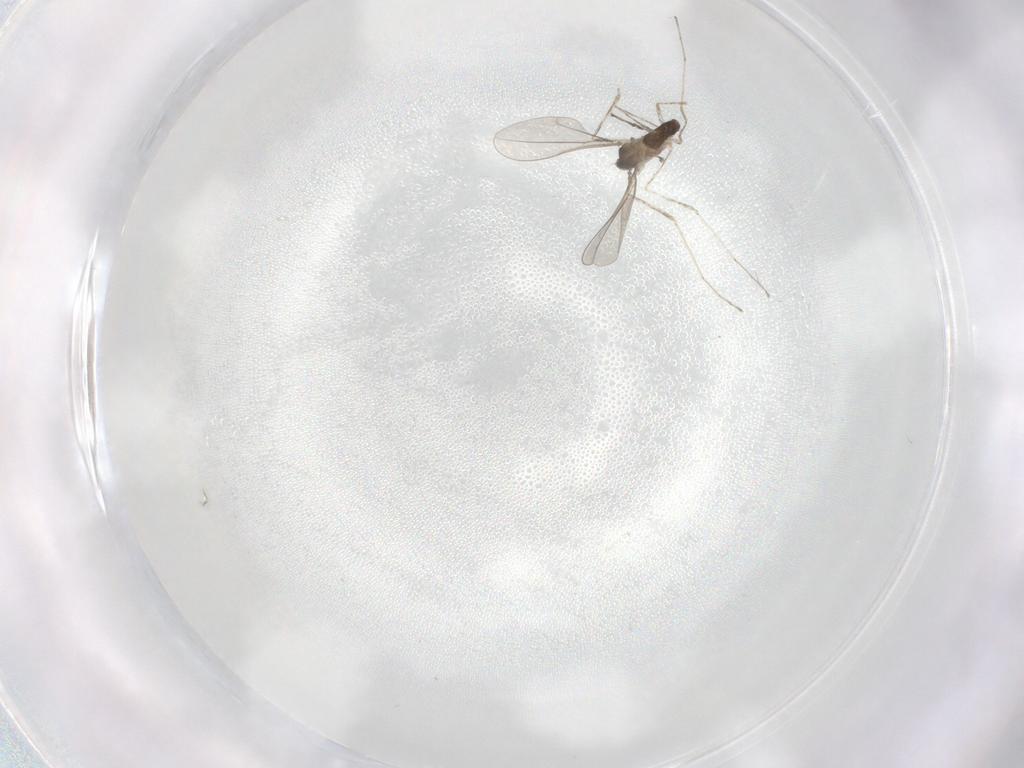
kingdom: Animalia
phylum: Arthropoda
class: Insecta
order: Diptera
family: Cecidomyiidae
